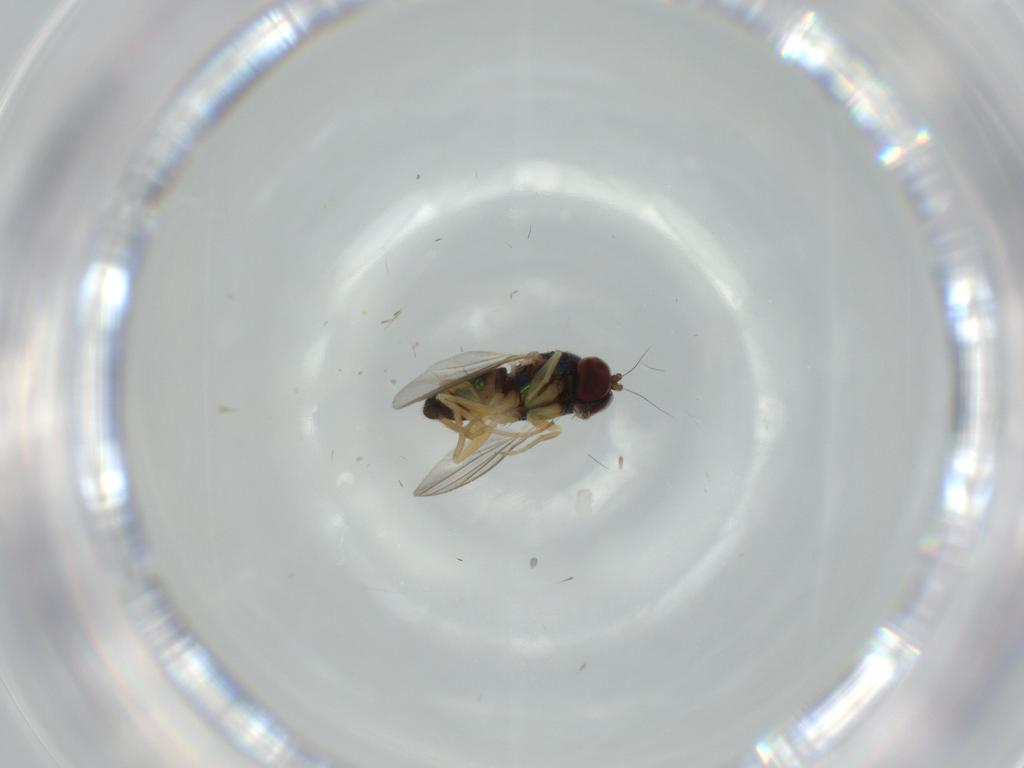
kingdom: Animalia
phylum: Arthropoda
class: Insecta
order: Diptera
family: Dolichopodidae
